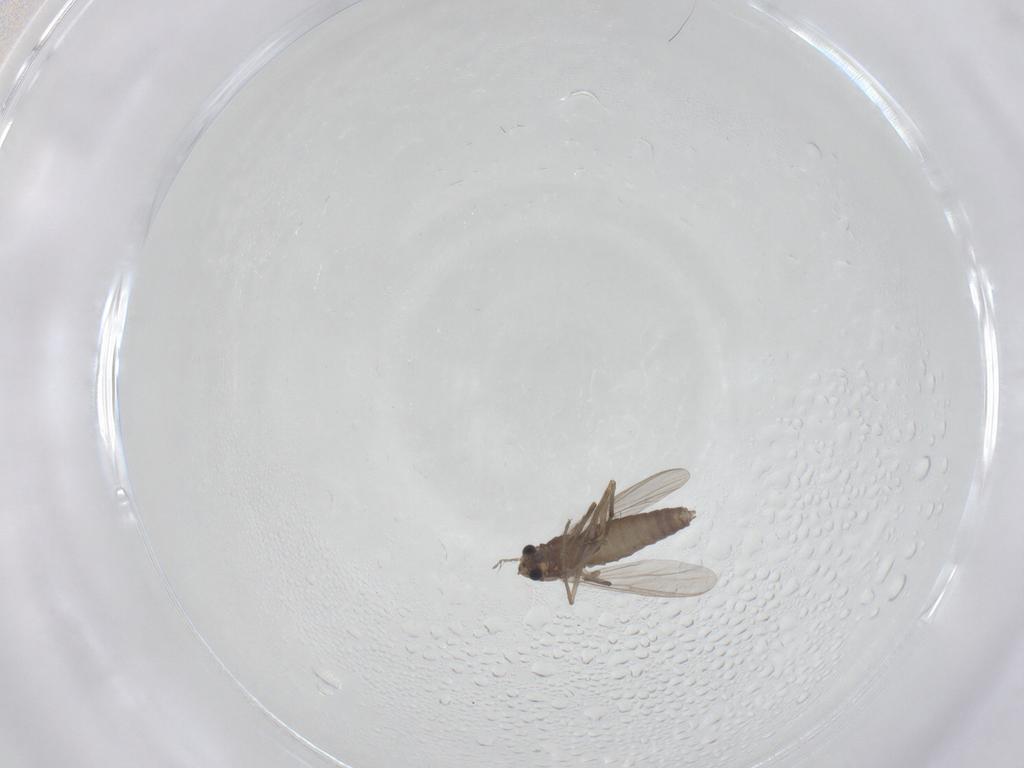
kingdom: Animalia
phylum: Arthropoda
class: Insecta
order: Diptera
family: Chironomidae
